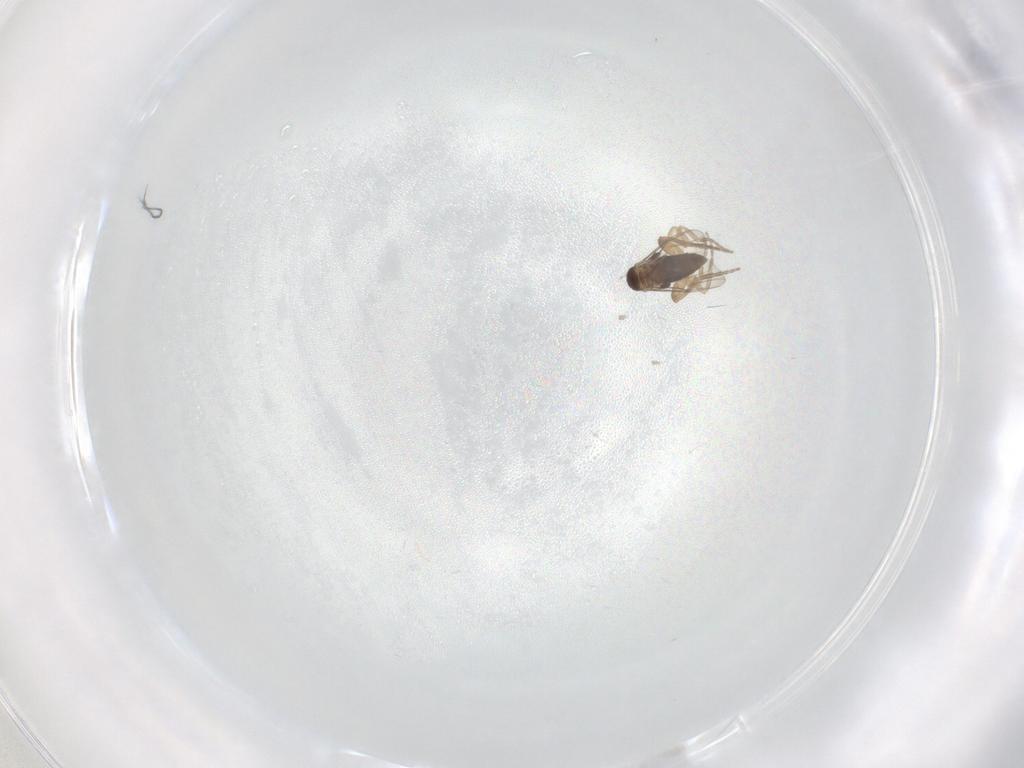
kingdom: Animalia
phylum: Arthropoda
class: Insecta
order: Diptera
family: Phoridae
